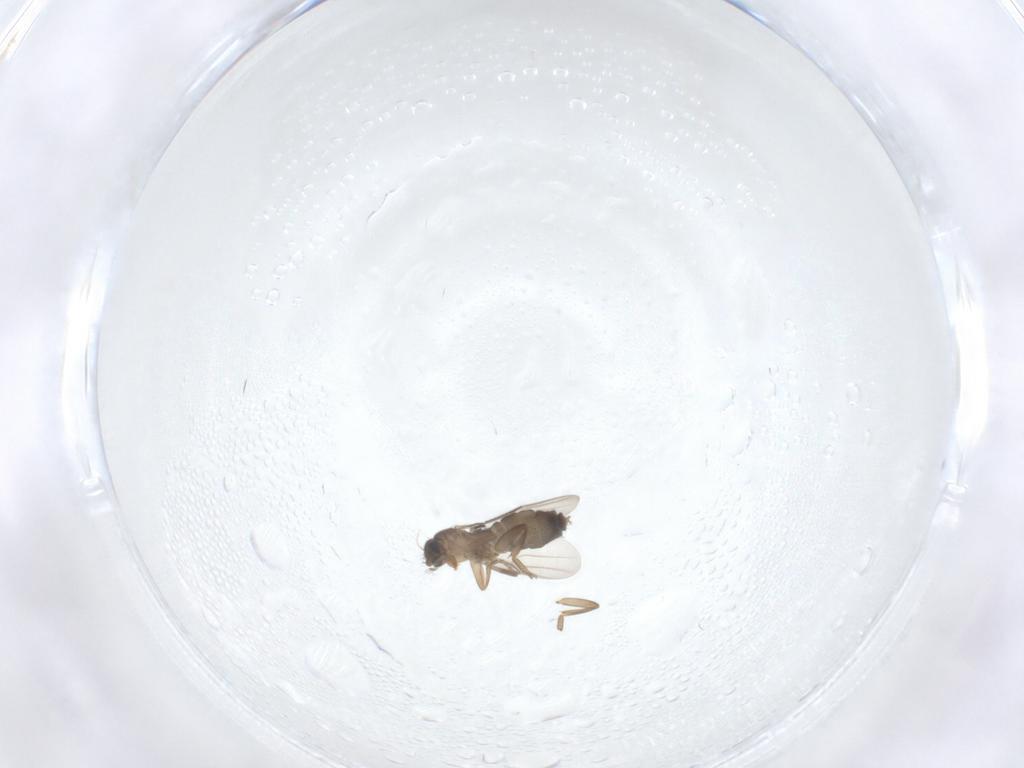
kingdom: Animalia
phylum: Arthropoda
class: Insecta
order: Diptera
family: Phoridae
